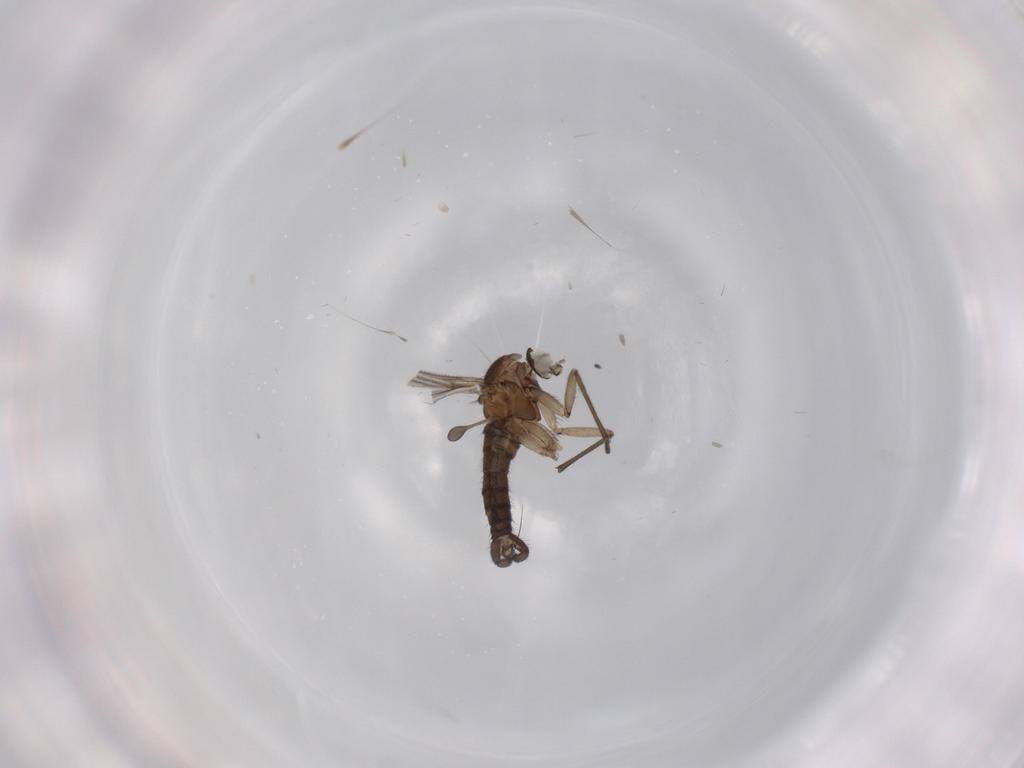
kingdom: Animalia
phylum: Arthropoda
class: Insecta
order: Diptera
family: Sciaridae
